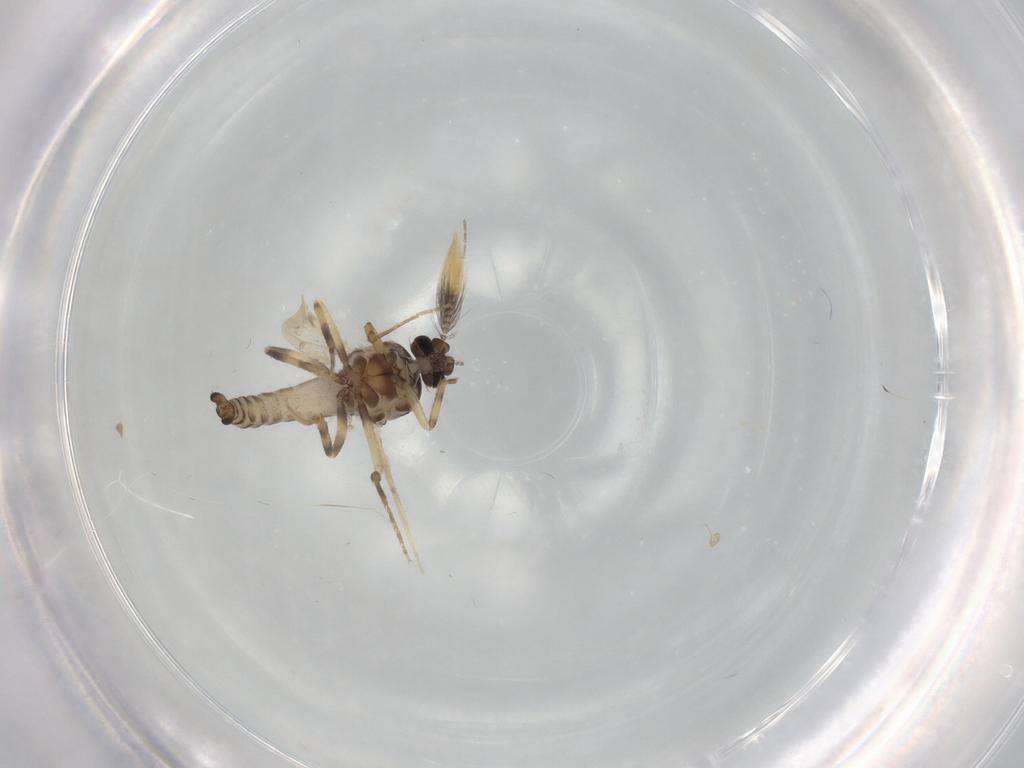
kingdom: Animalia
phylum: Arthropoda
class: Insecta
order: Diptera
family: Ceratopogonidae
